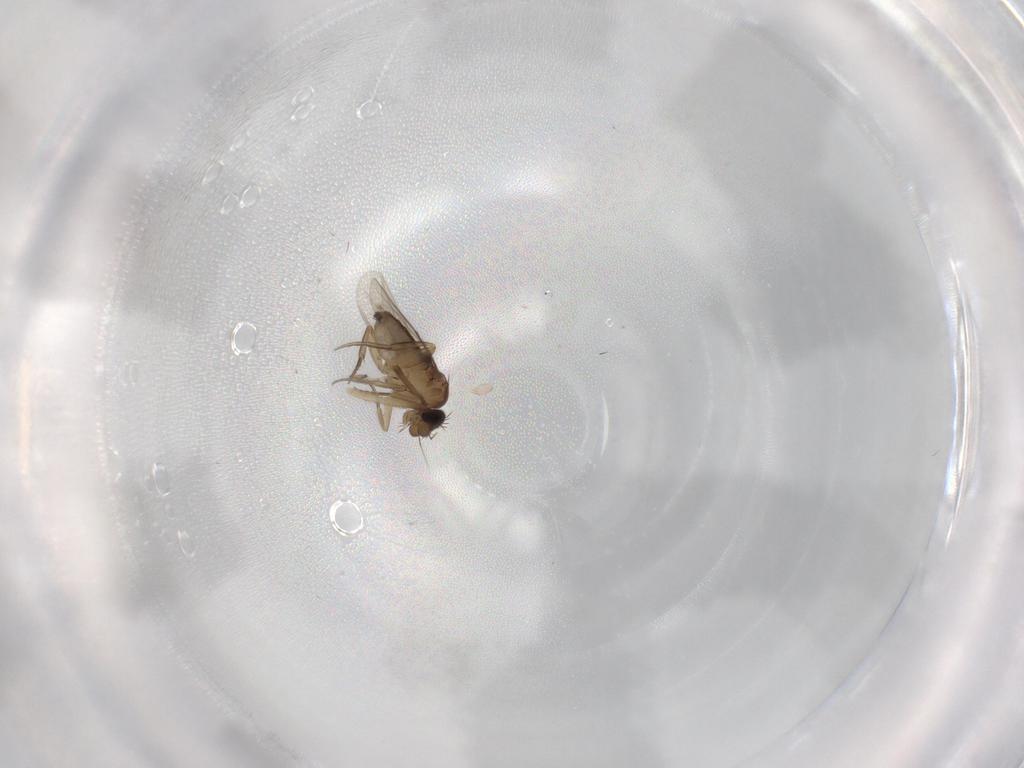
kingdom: Animalia
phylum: Arthropoda
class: Insecta
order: Diptera
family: Phoridae
